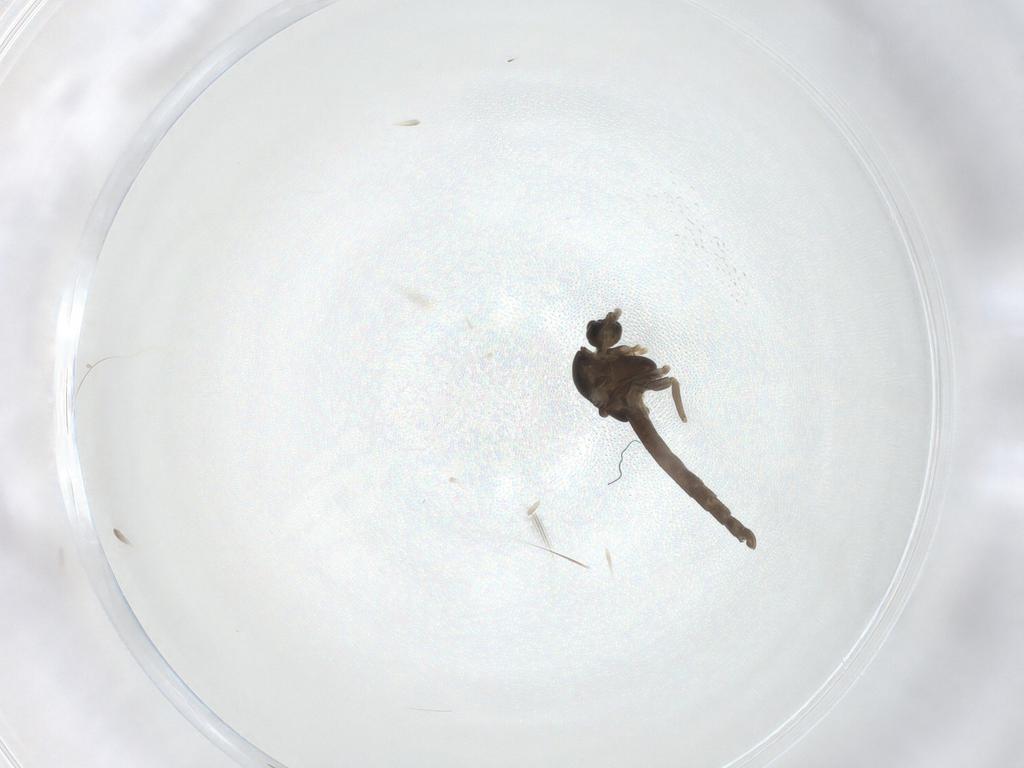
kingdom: Animalia
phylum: Arthropoda
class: Insecta
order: Diptera
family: Chironomidae
